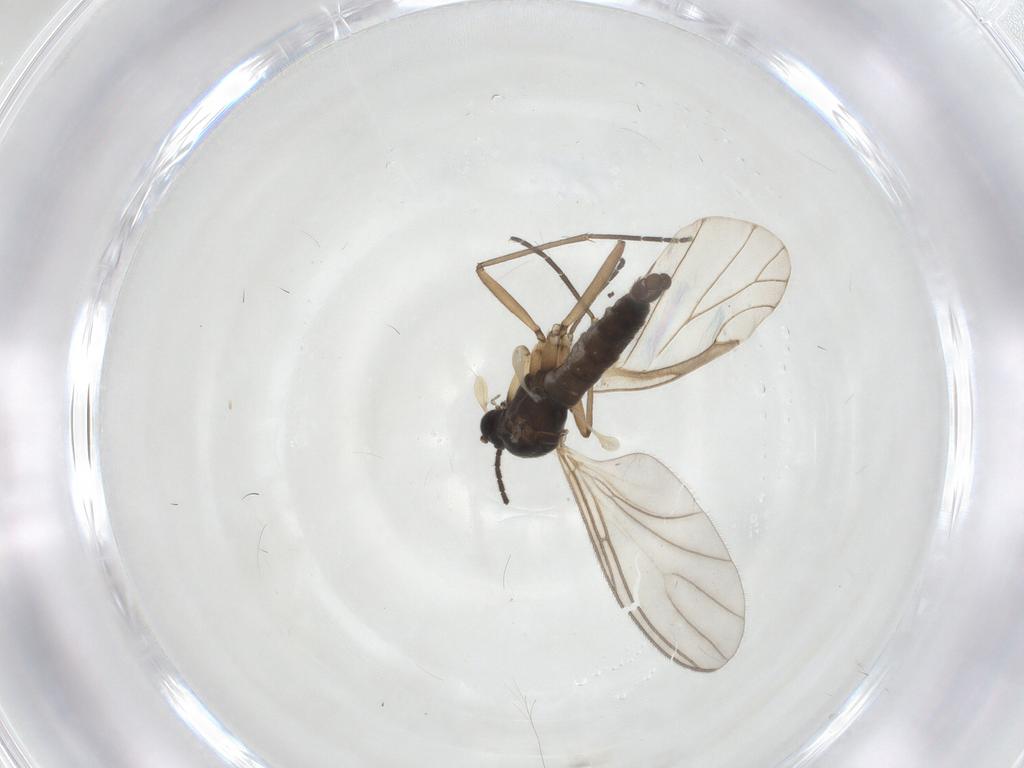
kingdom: Animalia
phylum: Arthropoda
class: Insecta
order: Diptera
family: Sciaridae
